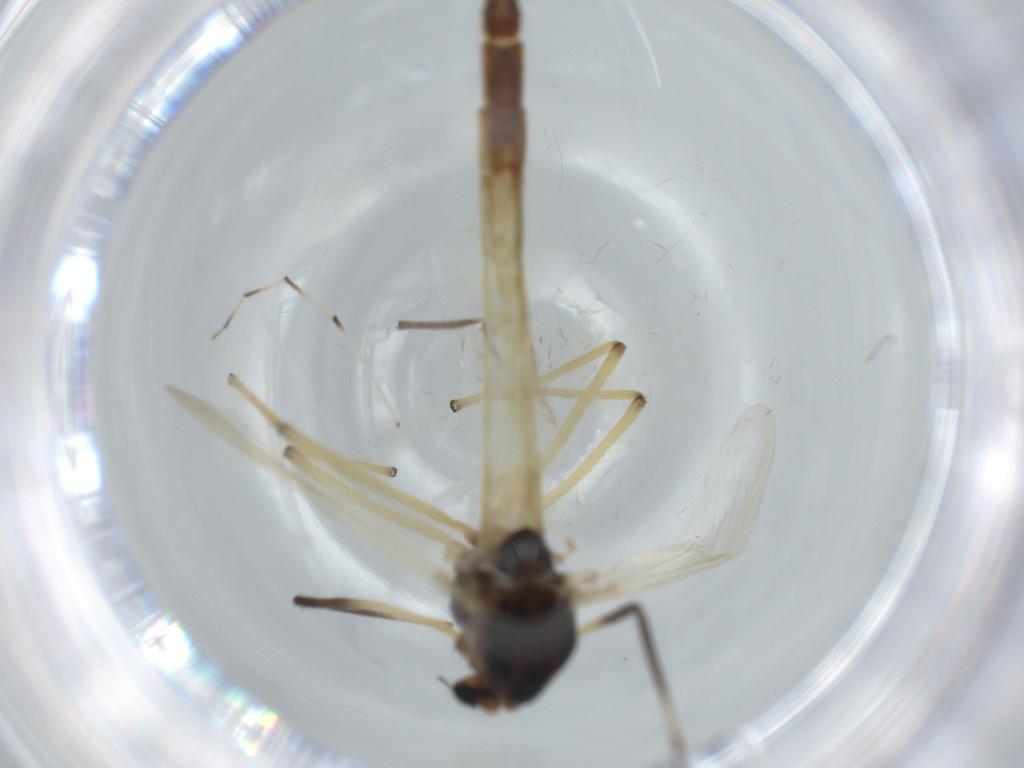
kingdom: Animalia
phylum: Arthropoda
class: Insecta
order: Diptera
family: Chironomidae
